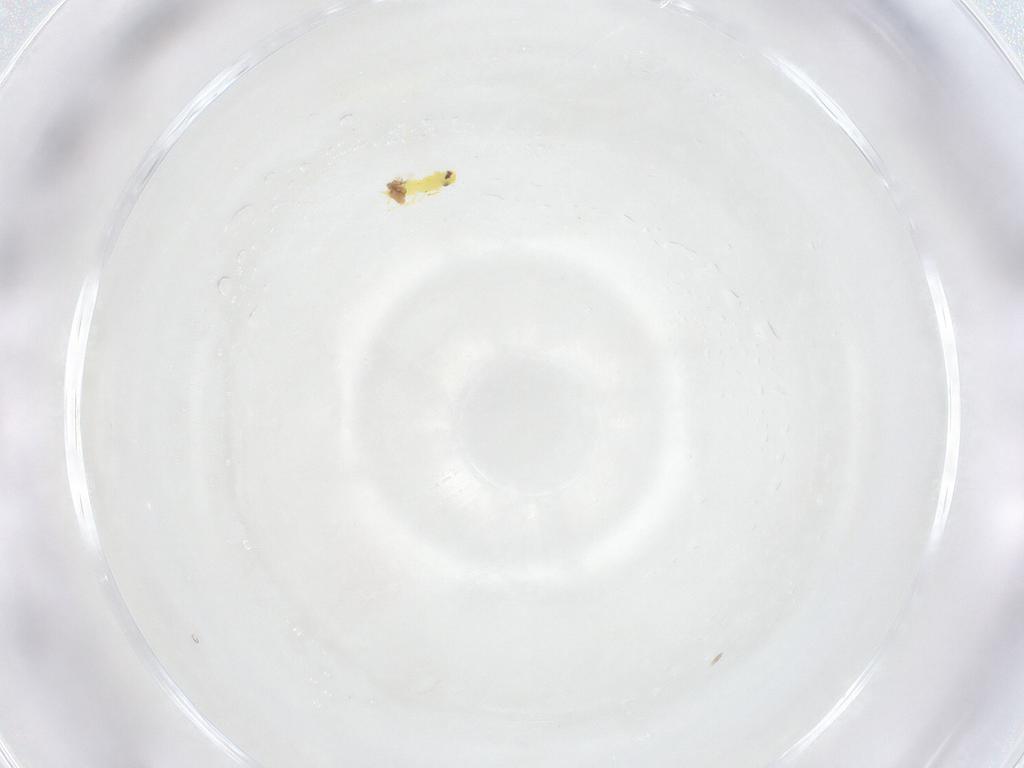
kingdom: Animalia
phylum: Arthropoda
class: Insecta
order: Hemiptera
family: Aleyrodidae
